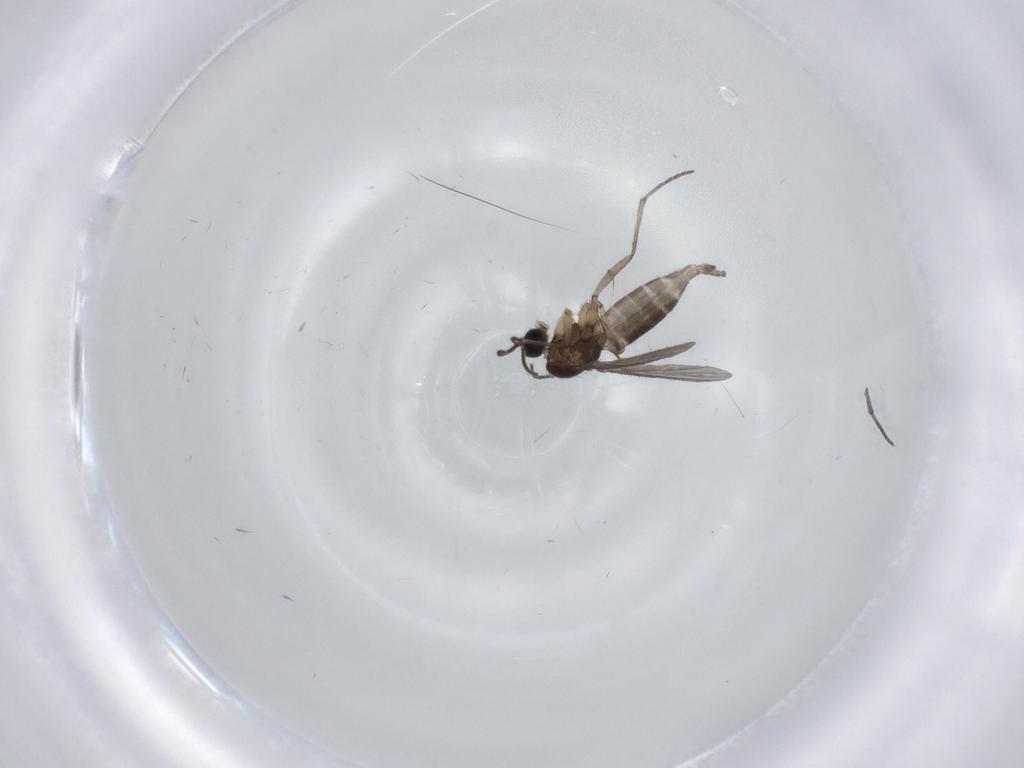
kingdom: Animalia
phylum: Arthropoda
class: Insecta
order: Diptera
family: Sciaridae
